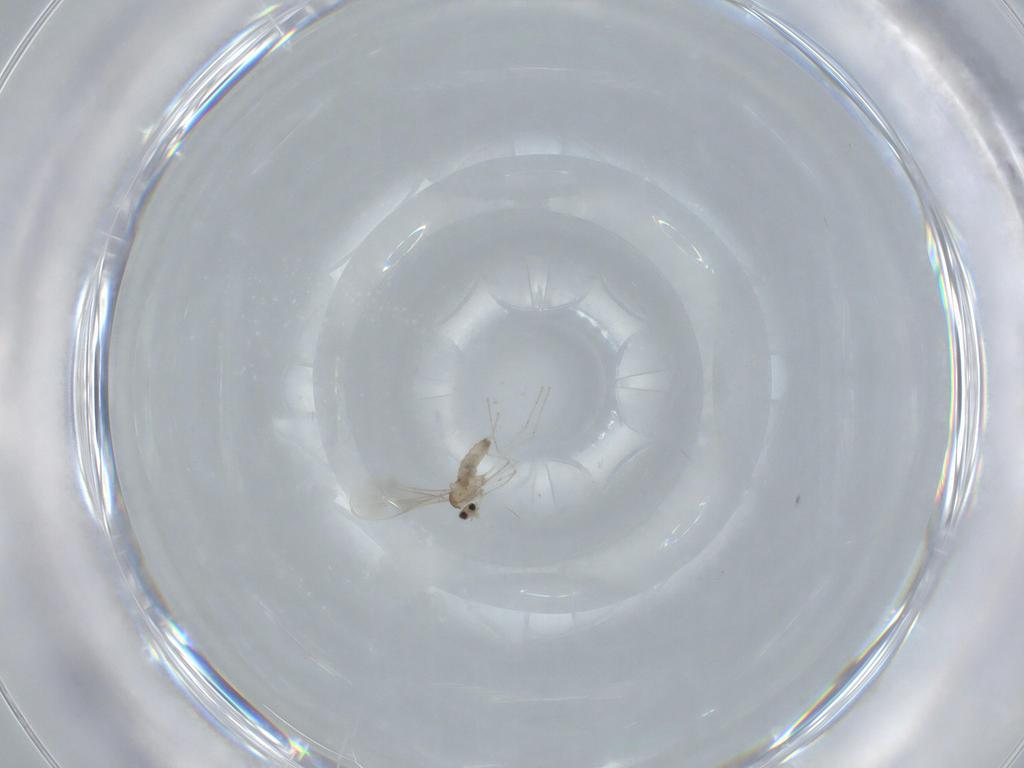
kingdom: Animalia
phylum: Arthropoda
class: Insecta
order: Diptera
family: Cecidomyiidae
